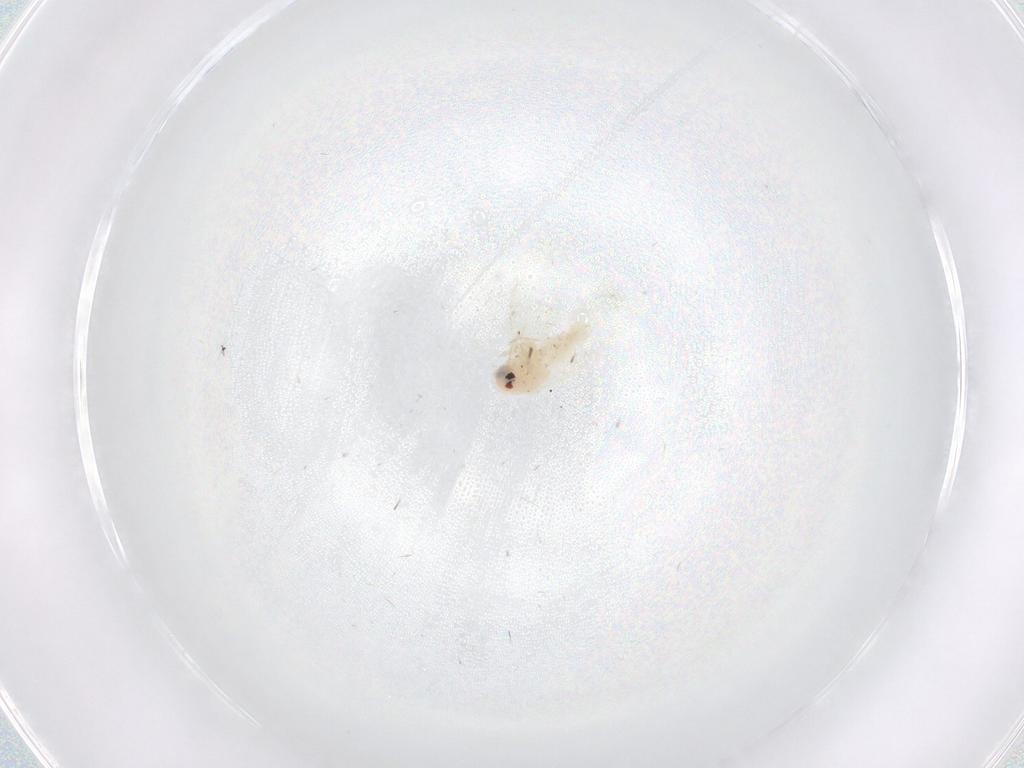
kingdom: Animalia
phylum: Arthropoda
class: Insecta
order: Hemiptera
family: Aleyrodidae
